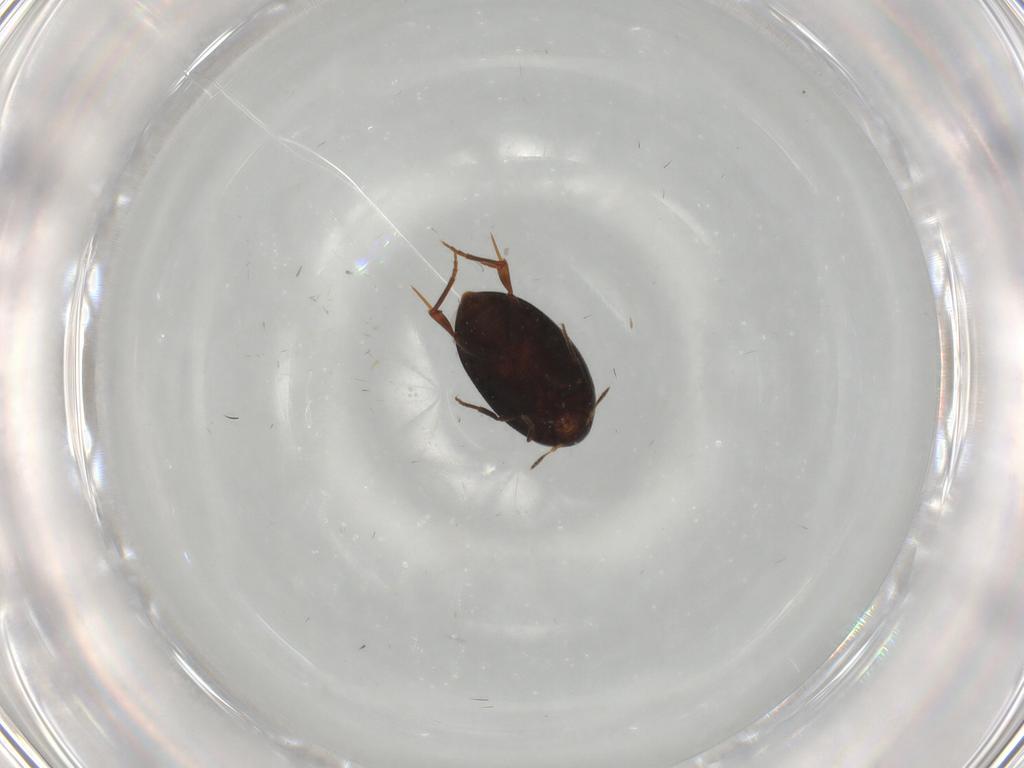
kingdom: Animalia
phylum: Arthropoda
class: Insecta
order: Coleoptera
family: Melandryidae
